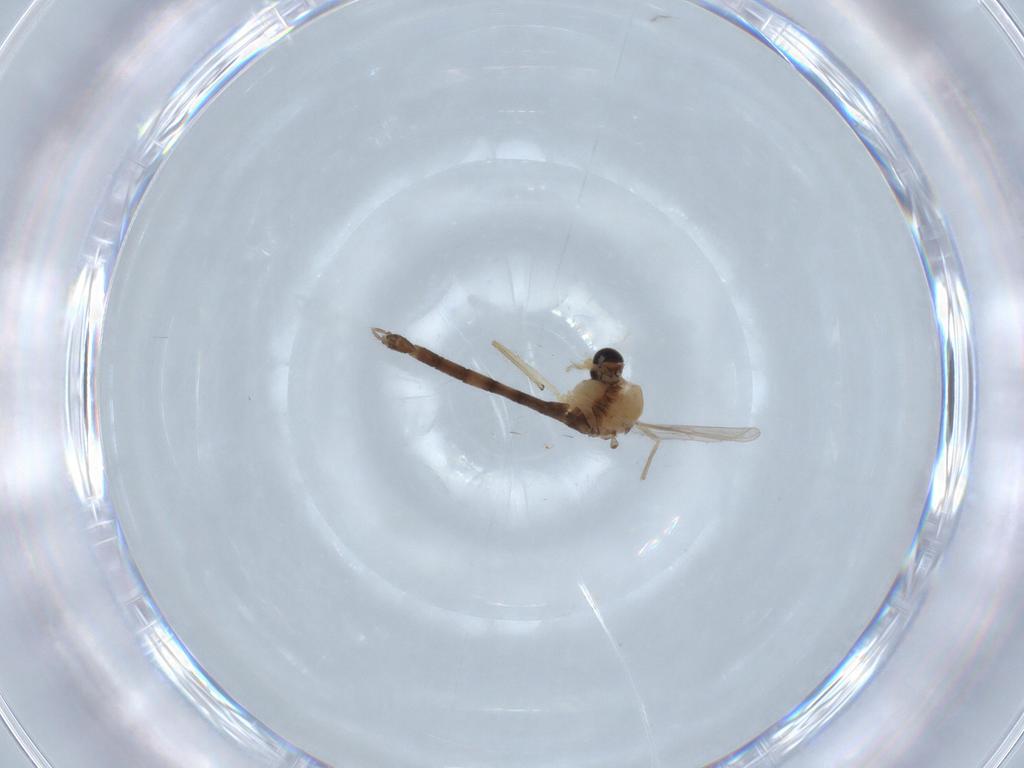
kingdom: Animalia
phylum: Arthropoda
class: Insecta
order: Diptera
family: Chironomidae
